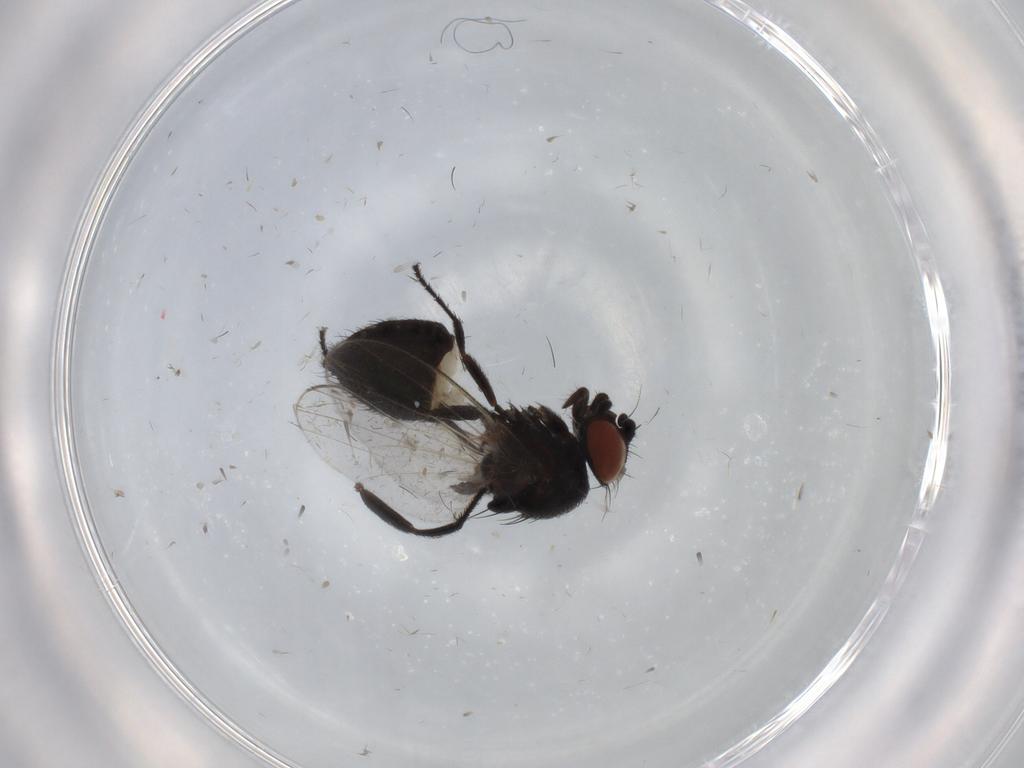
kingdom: Animalia
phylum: Arthropoda
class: Insecta
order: Diptera
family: Milichiidae
